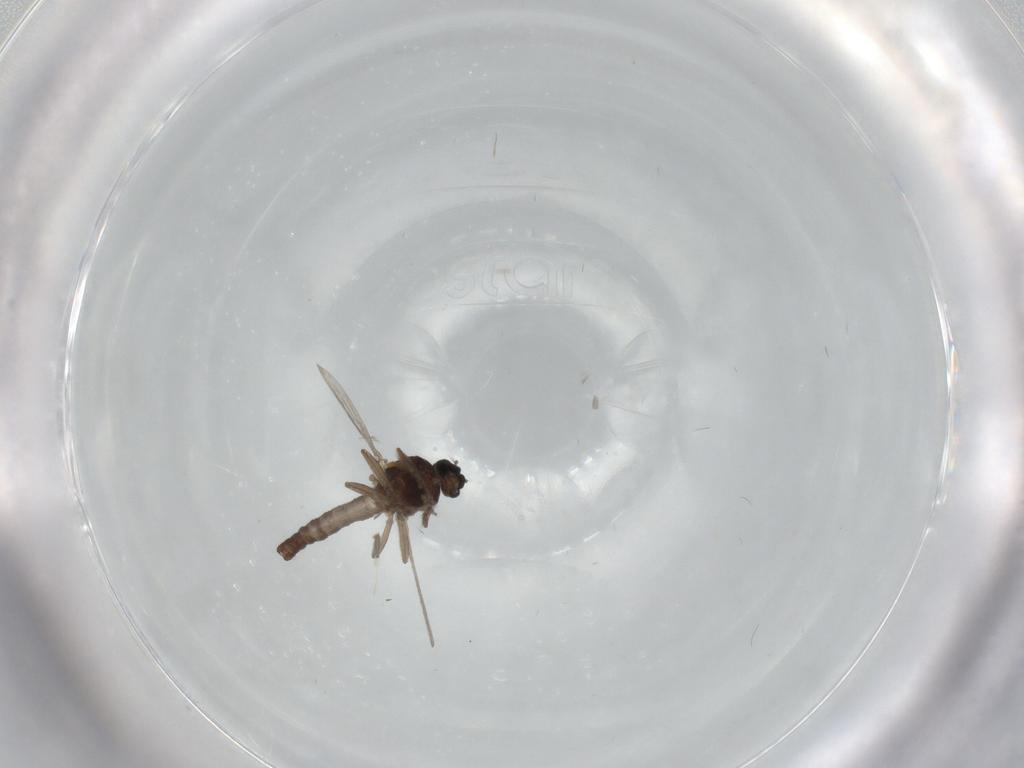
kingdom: Animalia
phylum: Arthropoda
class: Insecta
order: Diptera
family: Ceratopogonidae
